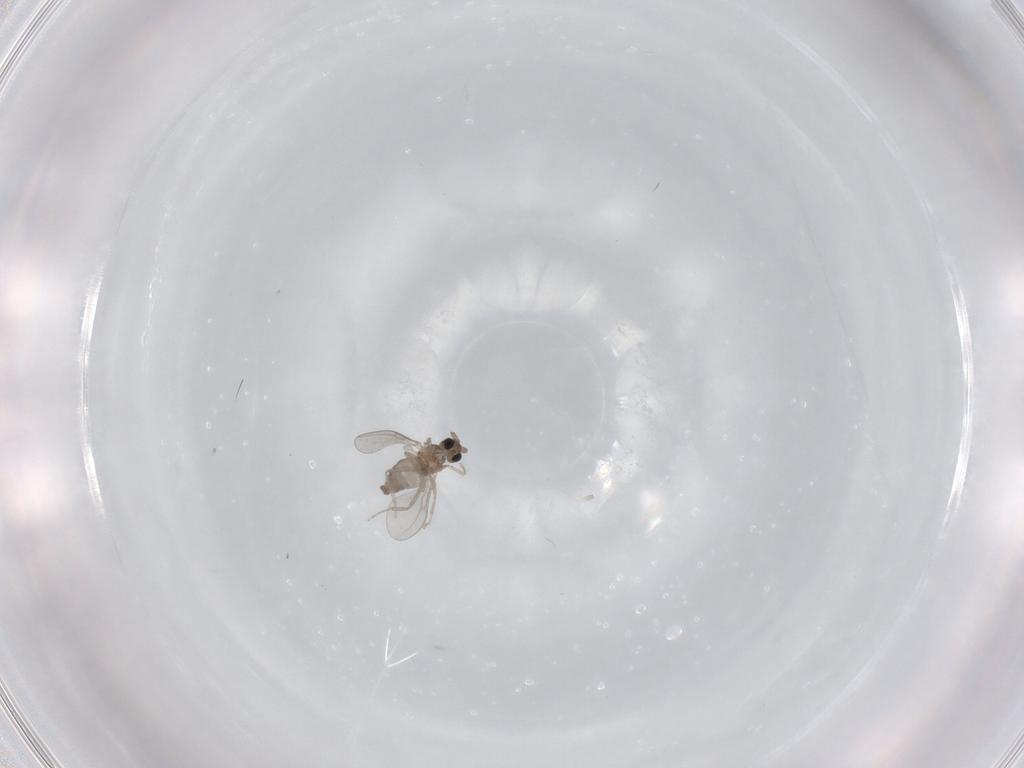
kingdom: Animalia
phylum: Arthropoda
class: Insecta
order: Diptera
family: Cecidomyiidae
